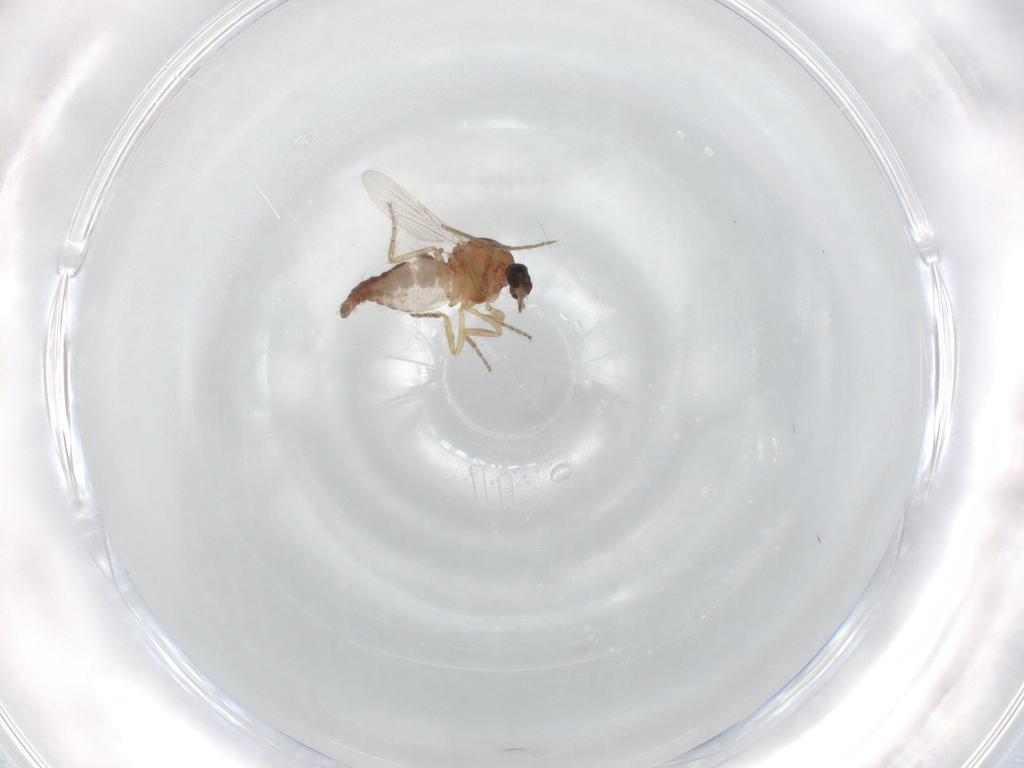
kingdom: Animalia
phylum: Arthropoda
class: Insecta
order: Diptera
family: Ceratopogonidae
